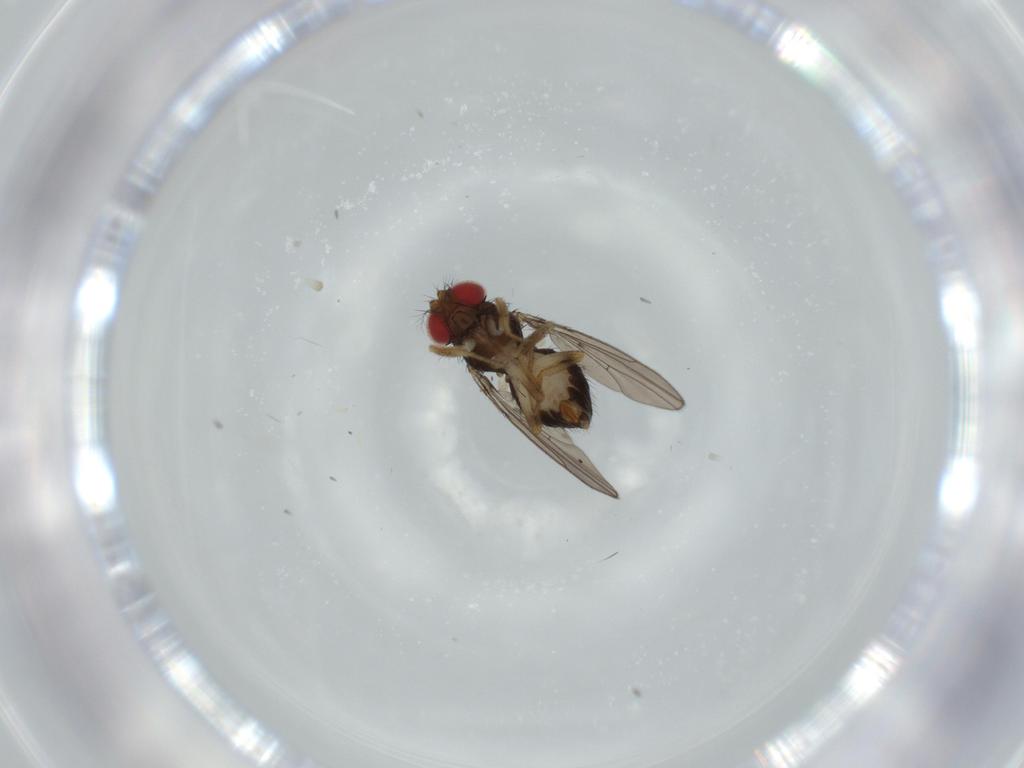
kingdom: Animalia
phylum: Arthropoda
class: Insecta
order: Diptera
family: Drosophilidae
